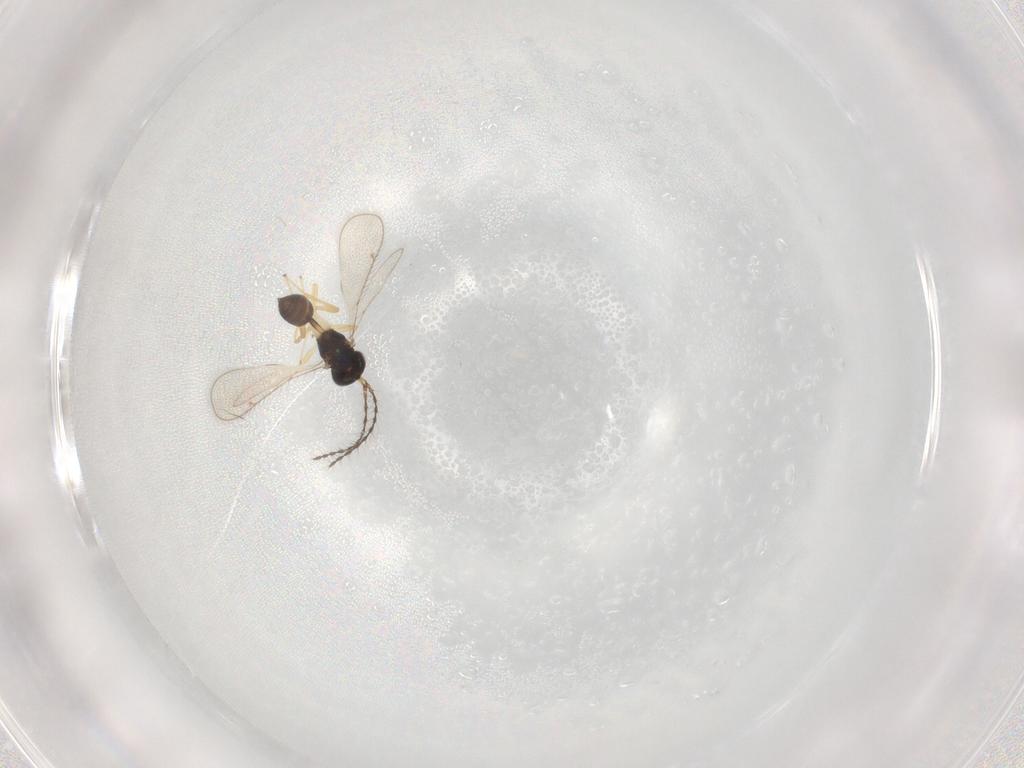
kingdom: Animalia
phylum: Arthropoda
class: Insecta
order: Hymenoptera
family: Diparidae
